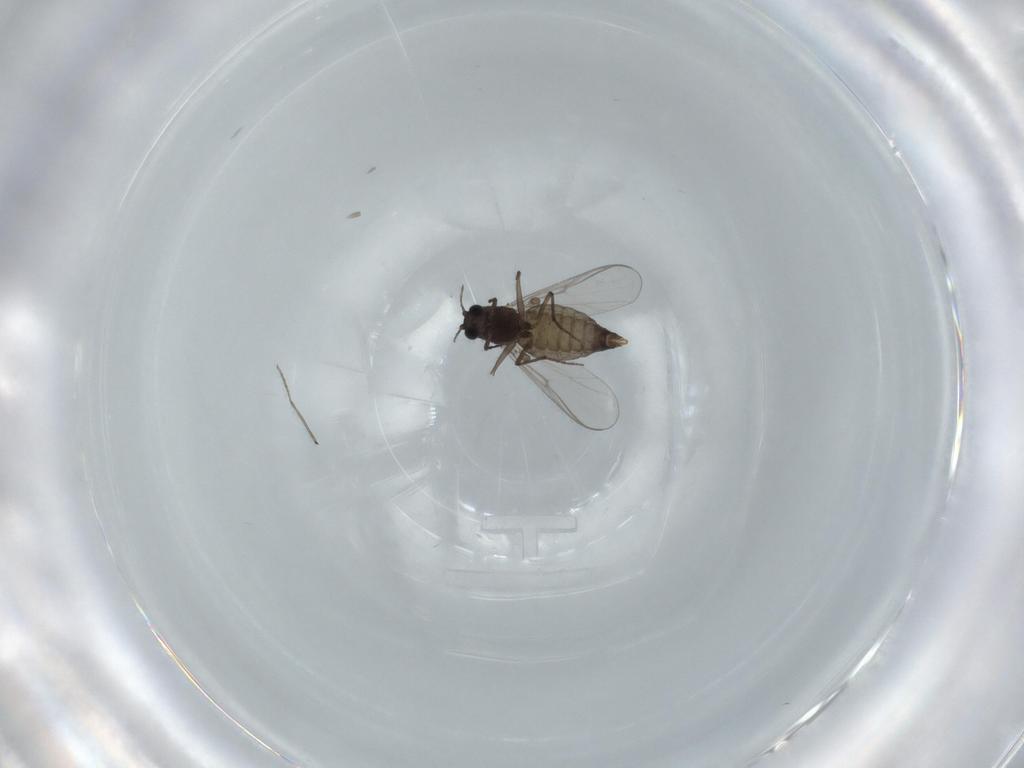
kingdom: Animalia
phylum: Arthropoda
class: Insecta
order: Diptera
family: Chironomidae
